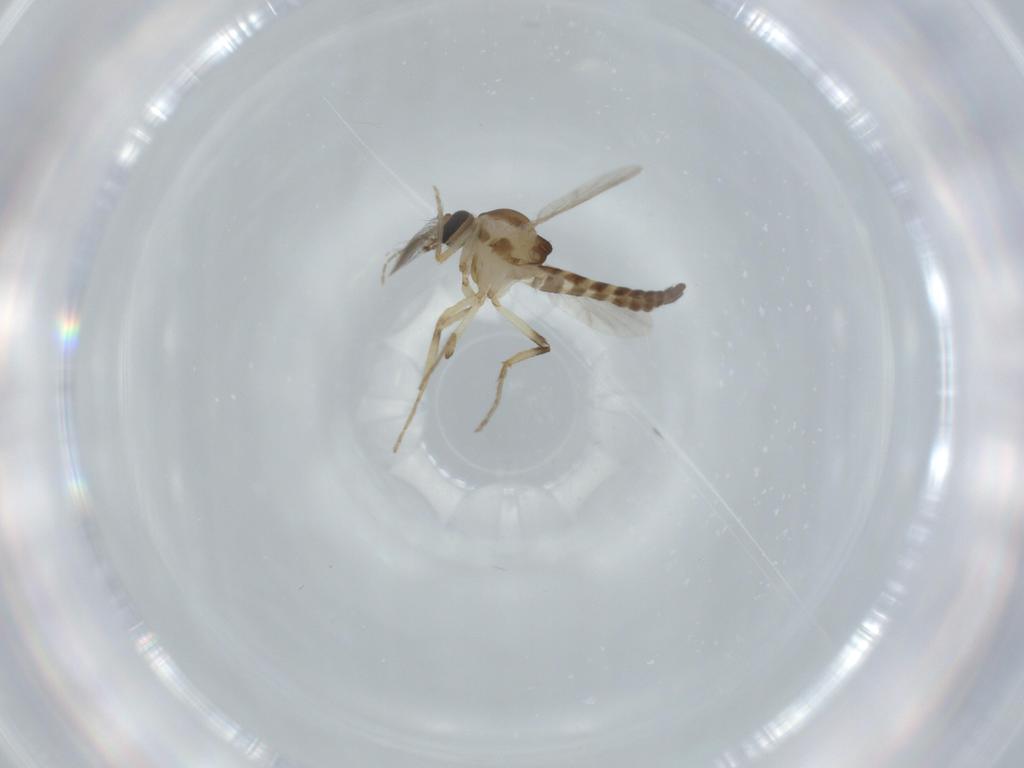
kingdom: Animalia
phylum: Arthropoda
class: Insecta
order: Diptera
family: Ceratopogonidae
